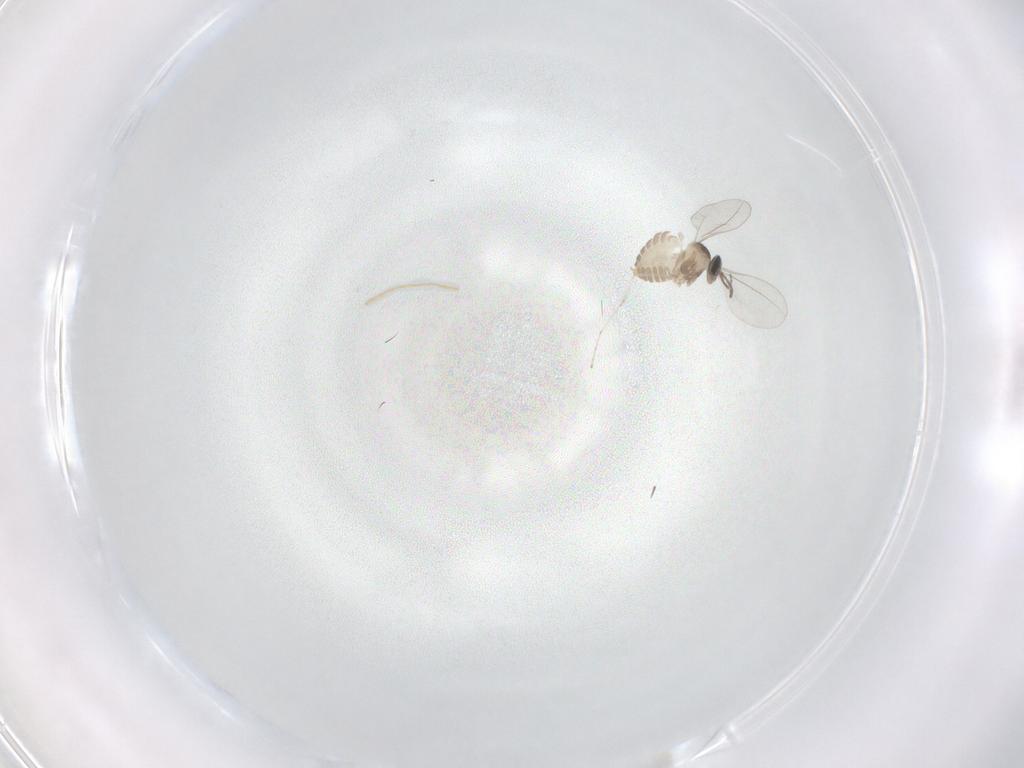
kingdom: Animalia
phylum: Arthropoda
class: Insecta
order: Diptera
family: Cecidomyiidae
